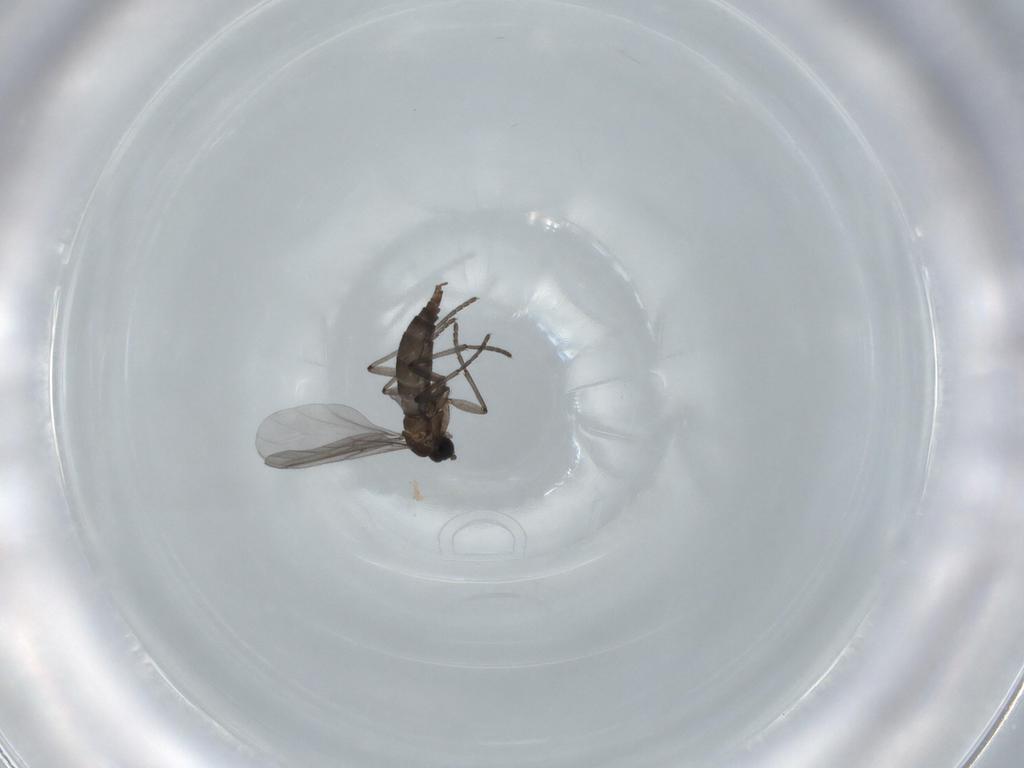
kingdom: Animalia
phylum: Arthropoda
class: Insecta
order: Diptera
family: Sciaridae
